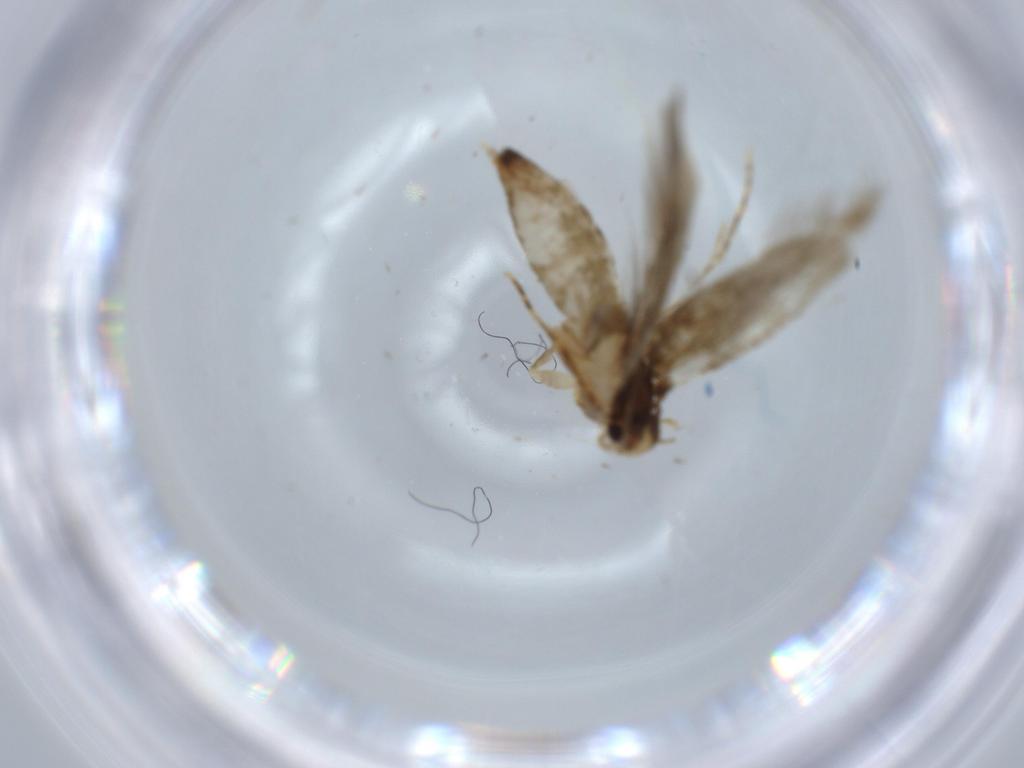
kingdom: Animalia
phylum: Arthropoda
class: Insecta
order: Lepidoptera
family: Tineidae
